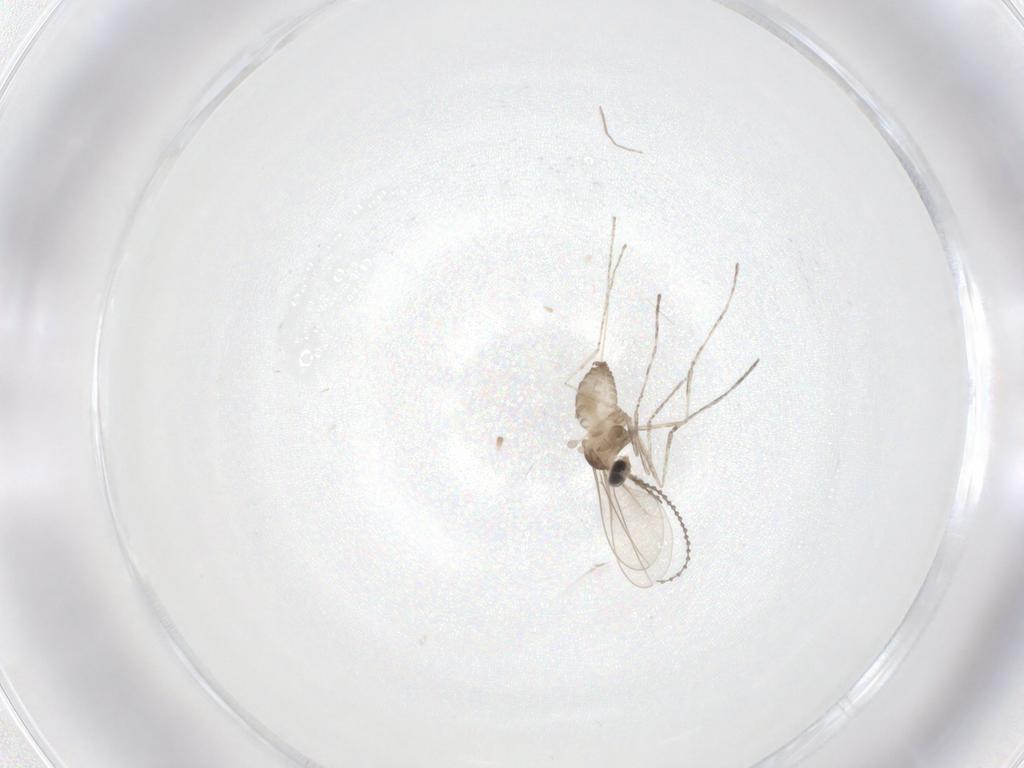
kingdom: Animalia
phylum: Arthropoda
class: Insecta
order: Diptera
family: Cecidomyiidae
